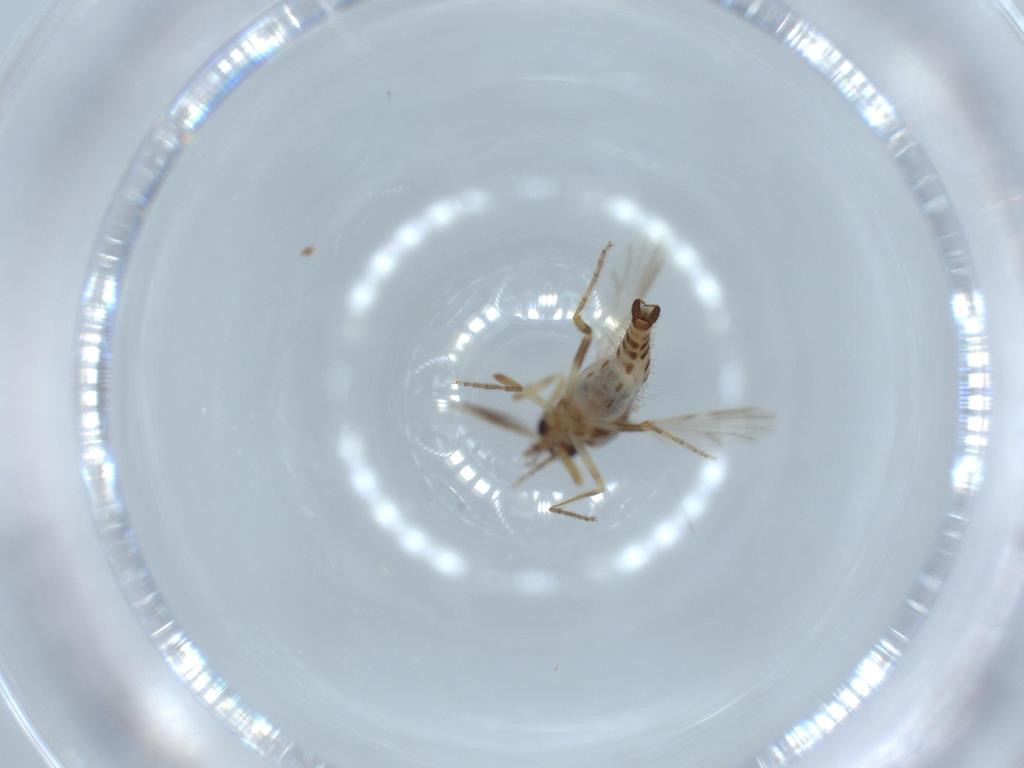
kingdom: Animalia
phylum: Arthropoda
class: Insecta
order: Diptera
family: Ceratopogonidae
